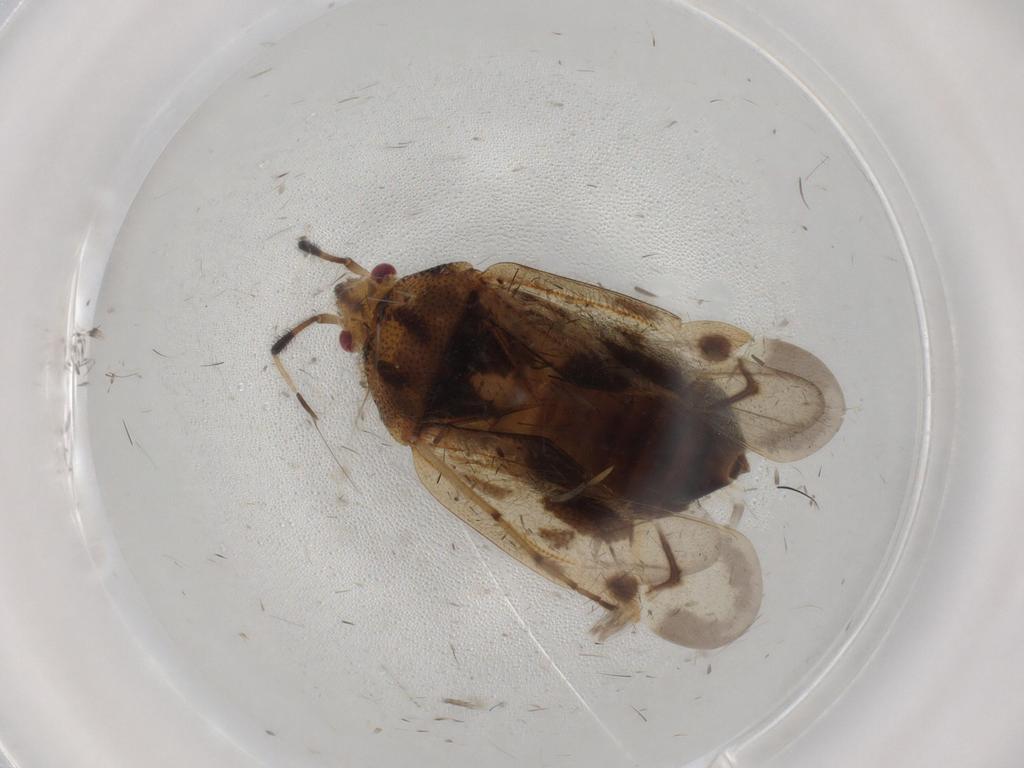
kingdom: Animalia
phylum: Arthropoda
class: Insecta
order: Hemiptera
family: Miridae
